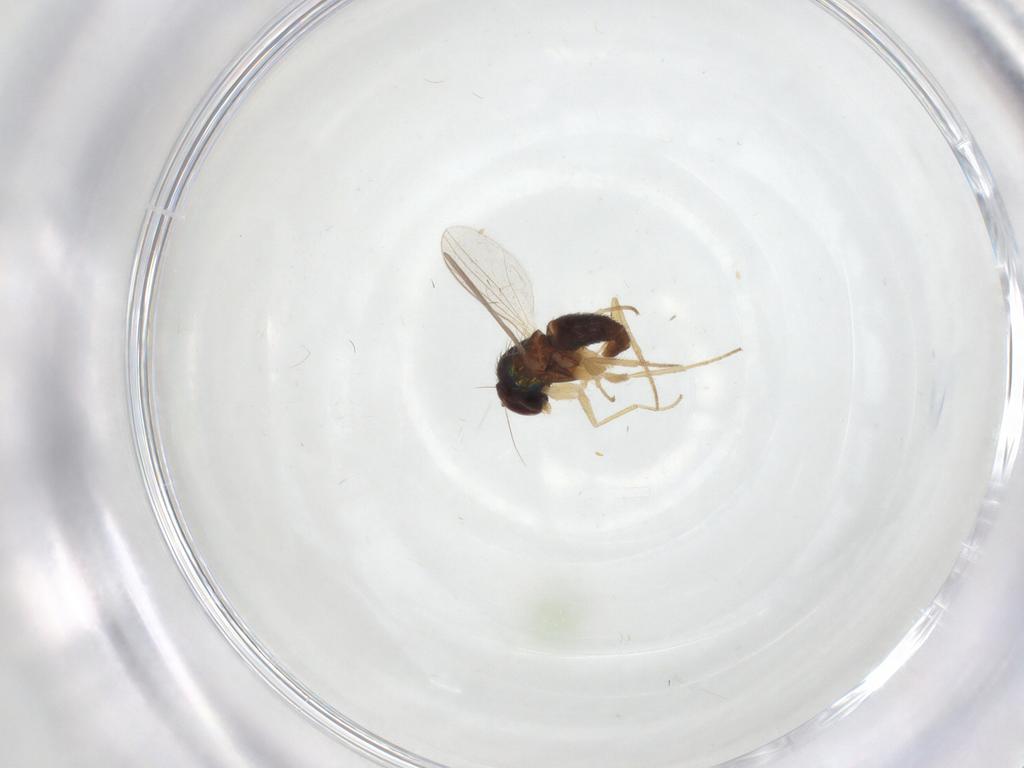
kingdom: Animalia
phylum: Arthropoda
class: Insecta
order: Diptera
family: Dolichopodidae
